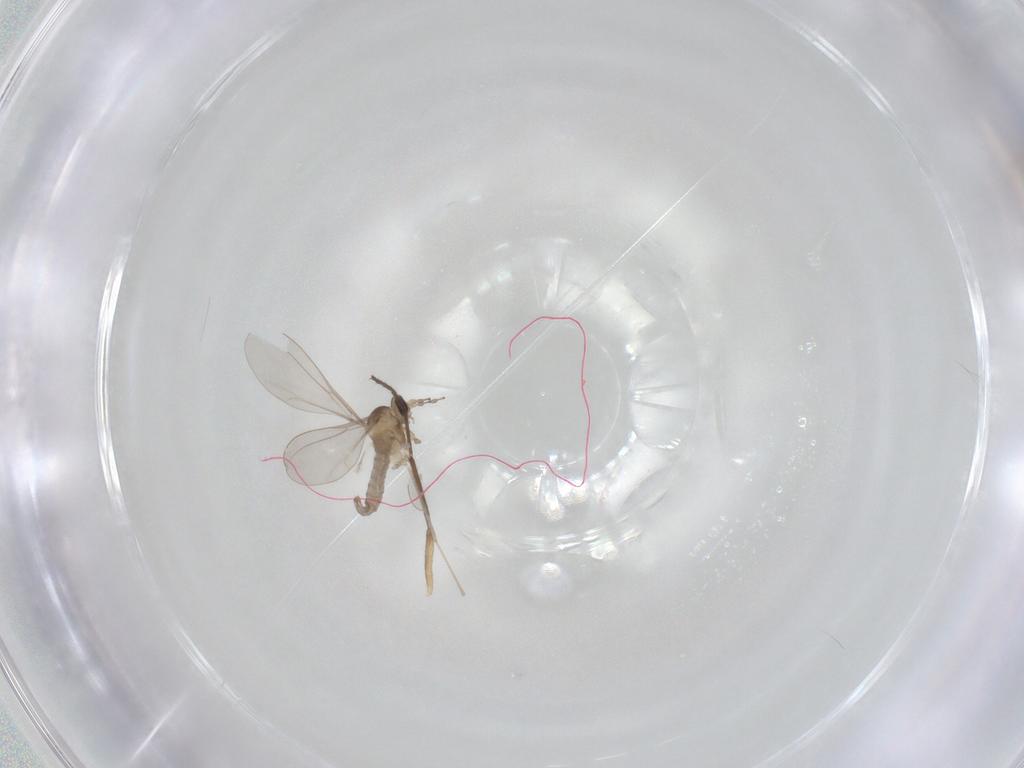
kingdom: Animalia
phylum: Arthropoda
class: Insecta
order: Diptera
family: Cecidomyiidae
